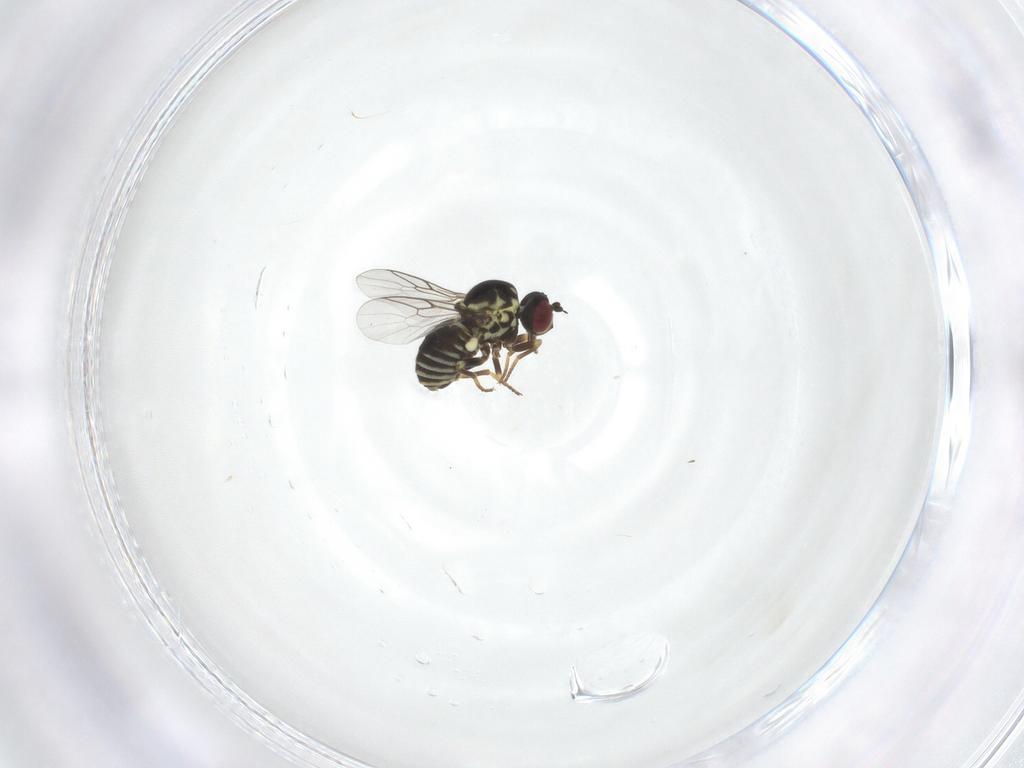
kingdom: Animalia
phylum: Arthropoda
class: Insecta
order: Diptera
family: Mythicomyiidae
